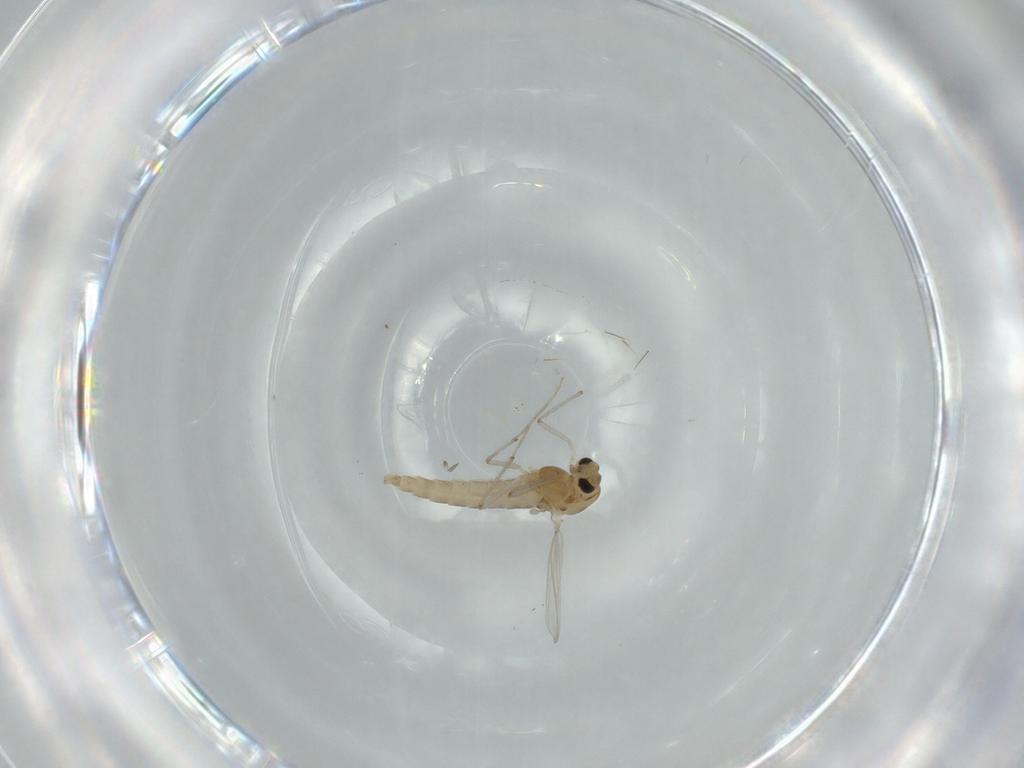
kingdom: Animalia
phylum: Arthropoda
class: Insecta
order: Diptera
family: Chironomidae
